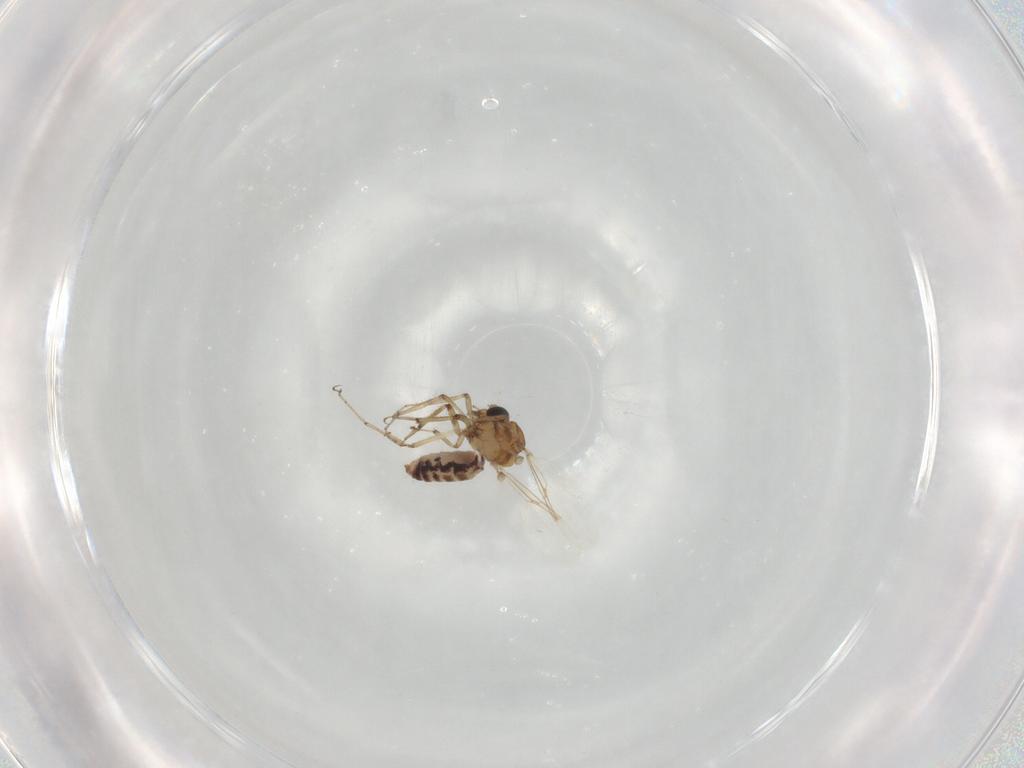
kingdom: Animalia
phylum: Arthropoda
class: Insecta
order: Diptera
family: Ceratopogonidae
